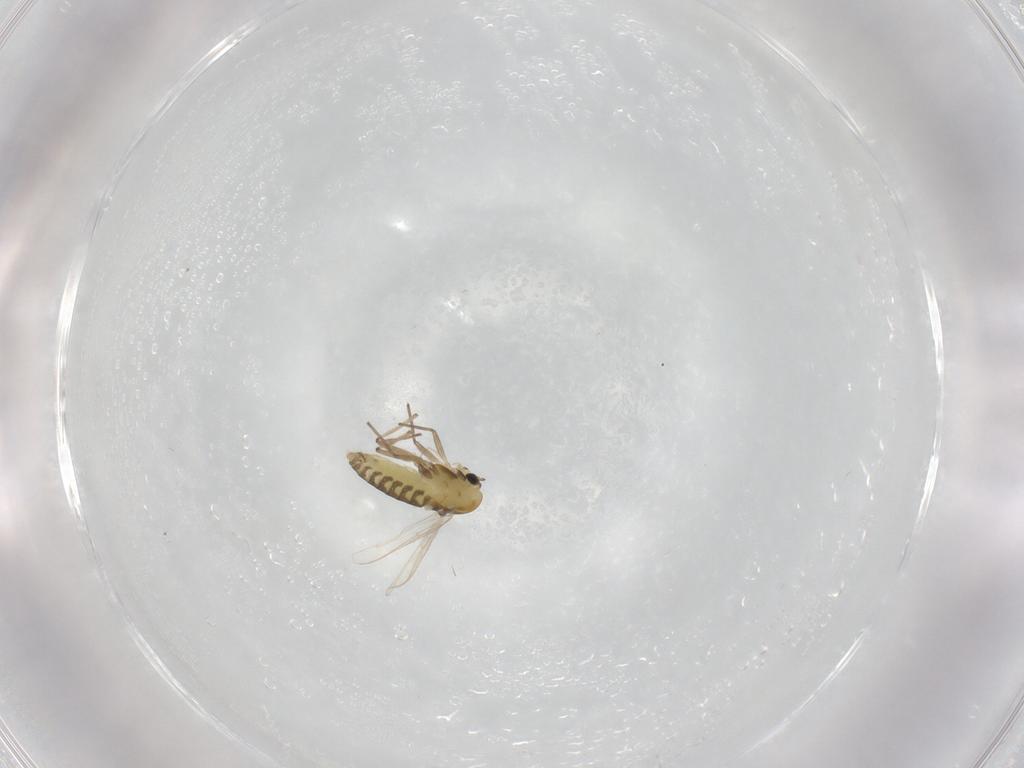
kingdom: Animalia
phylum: Arthropoda
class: Insecta
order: Diptera
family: Chironomidae
